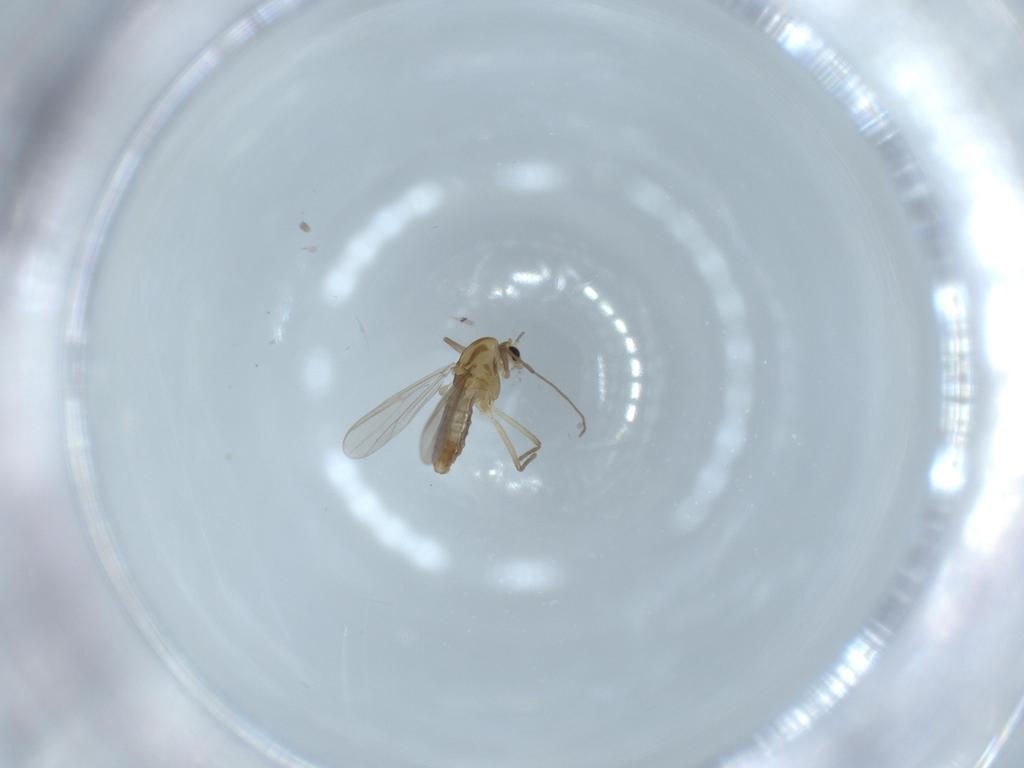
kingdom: Animalia
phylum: Arthropoda
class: Insecta
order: Diptera
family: Chironomidae
